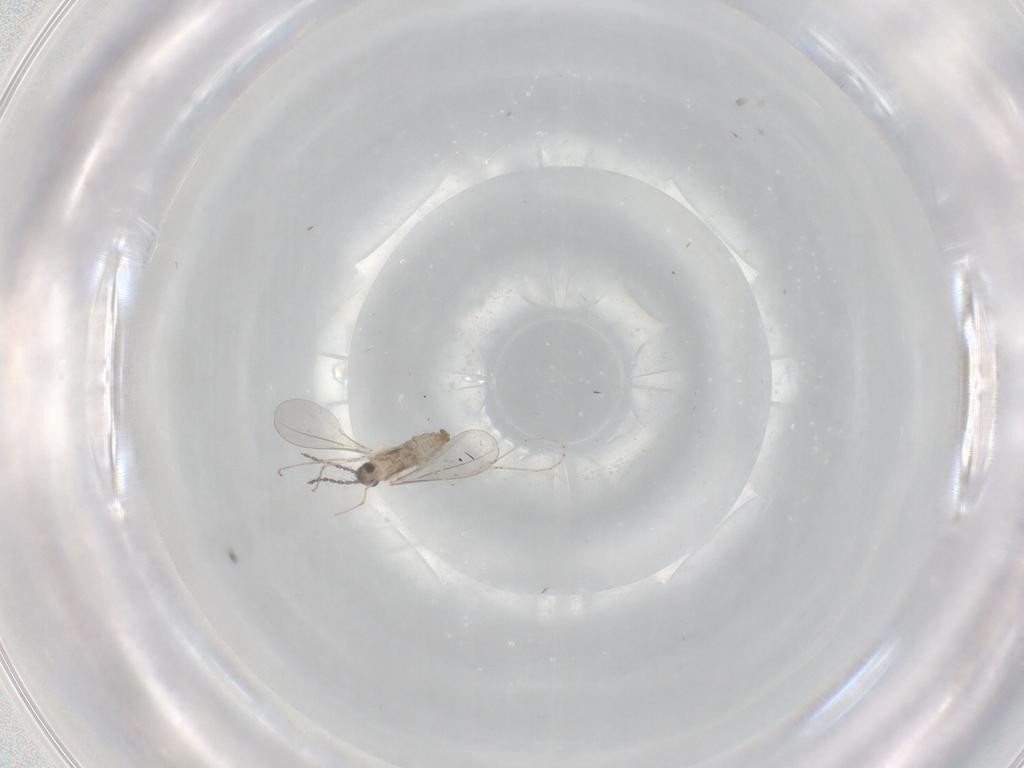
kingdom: Animalia
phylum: Arthropoda
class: Insecta
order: Diptera
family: Cecidomyiidae
